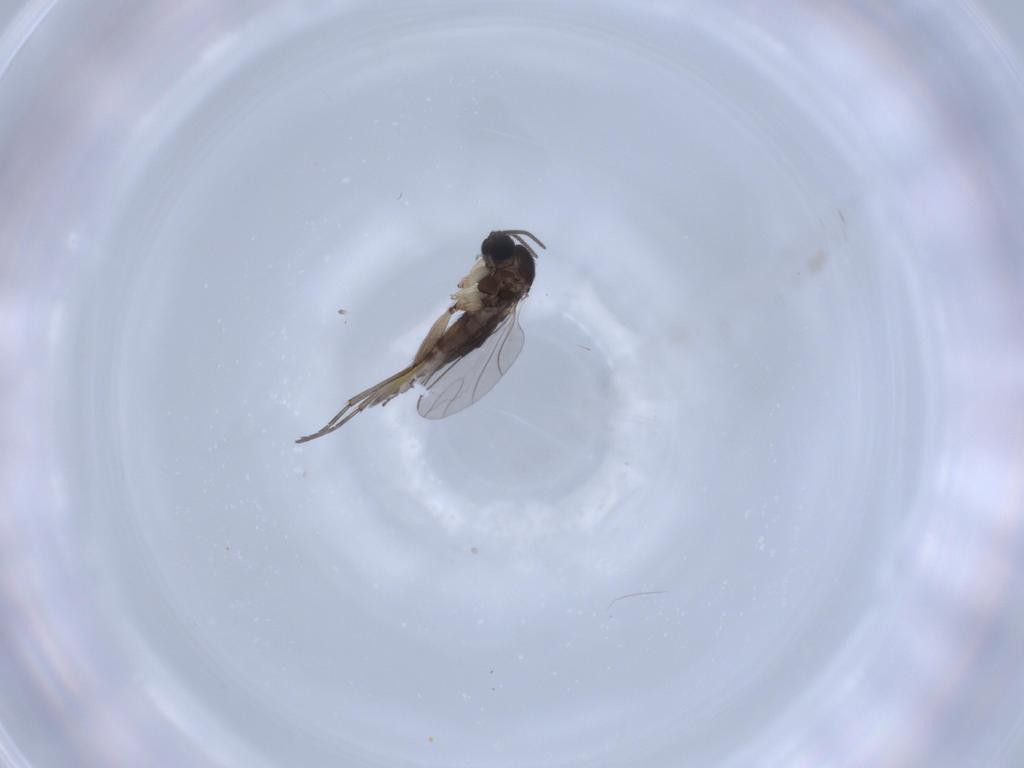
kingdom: Animalia
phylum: Arthropoda
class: Insecta
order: Diptera
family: Sciaridae
